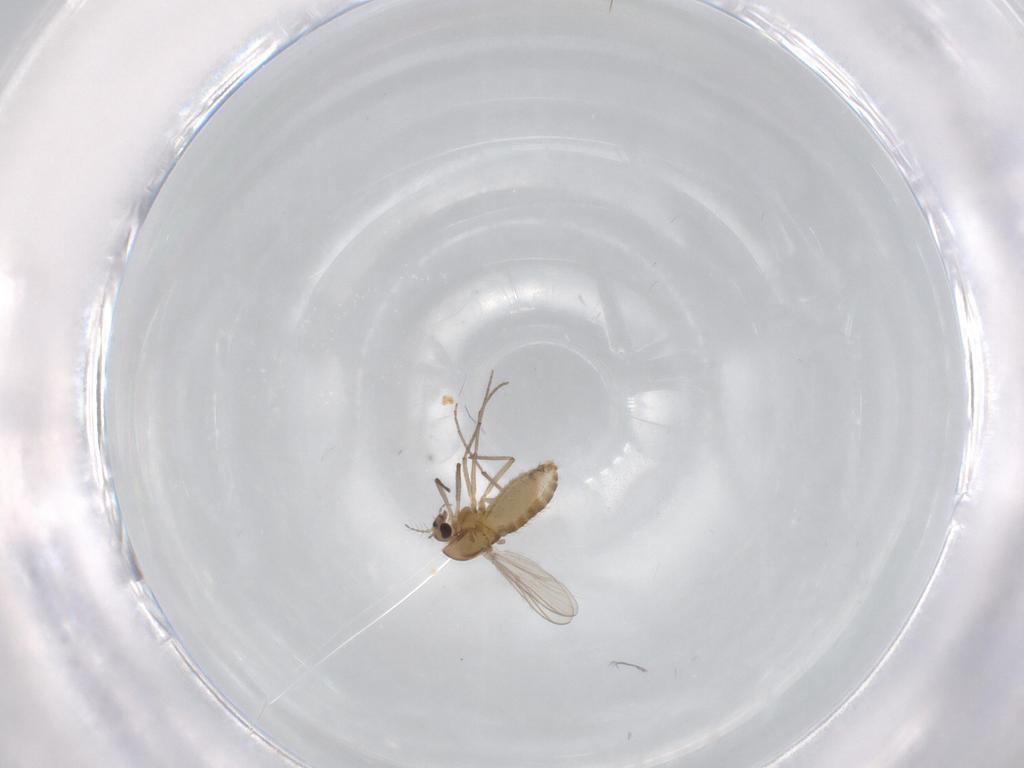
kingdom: Animalia
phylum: Arthropoda
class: Insecta
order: Diptera
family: Chironomidae
